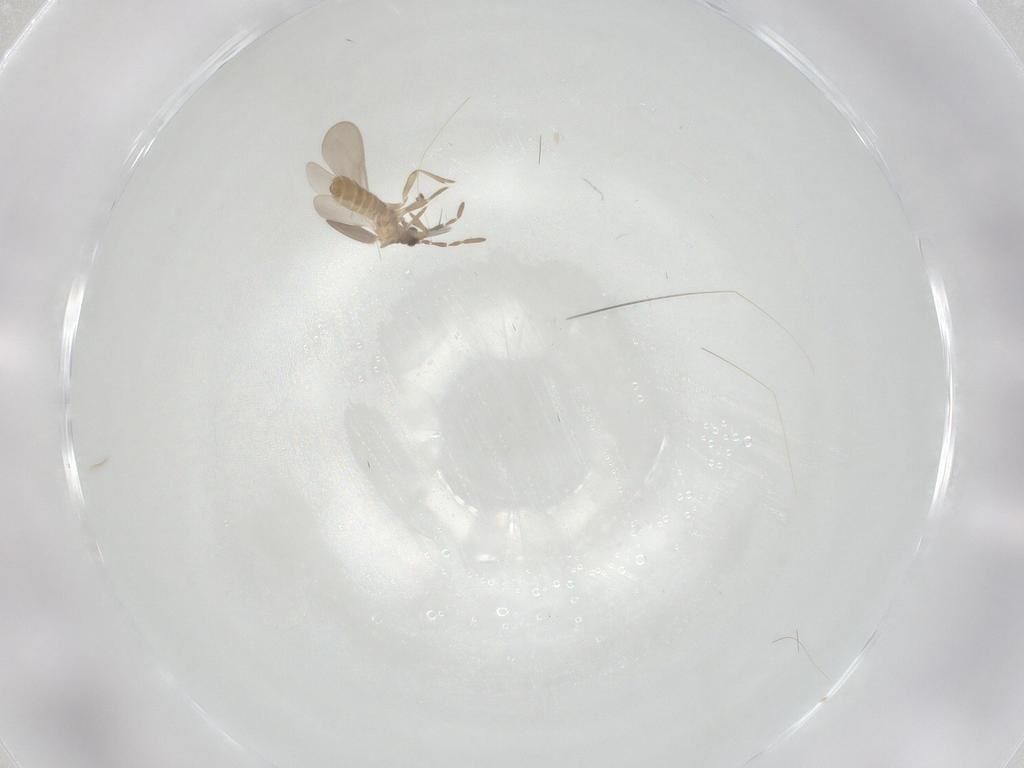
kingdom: Animalia
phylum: Arthropoda
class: Insecta
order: Hemiptera
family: Enicocephalidae
